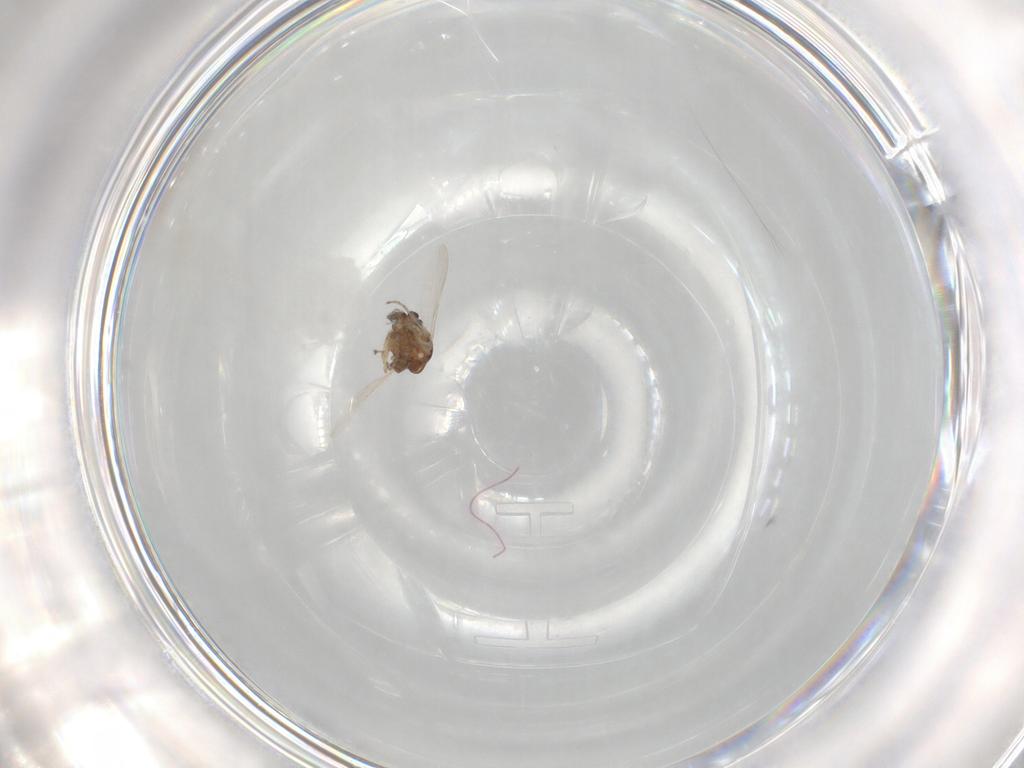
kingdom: Animalia
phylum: Arthropoda
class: Insecta
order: Diptera
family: Ceratopogonidae
